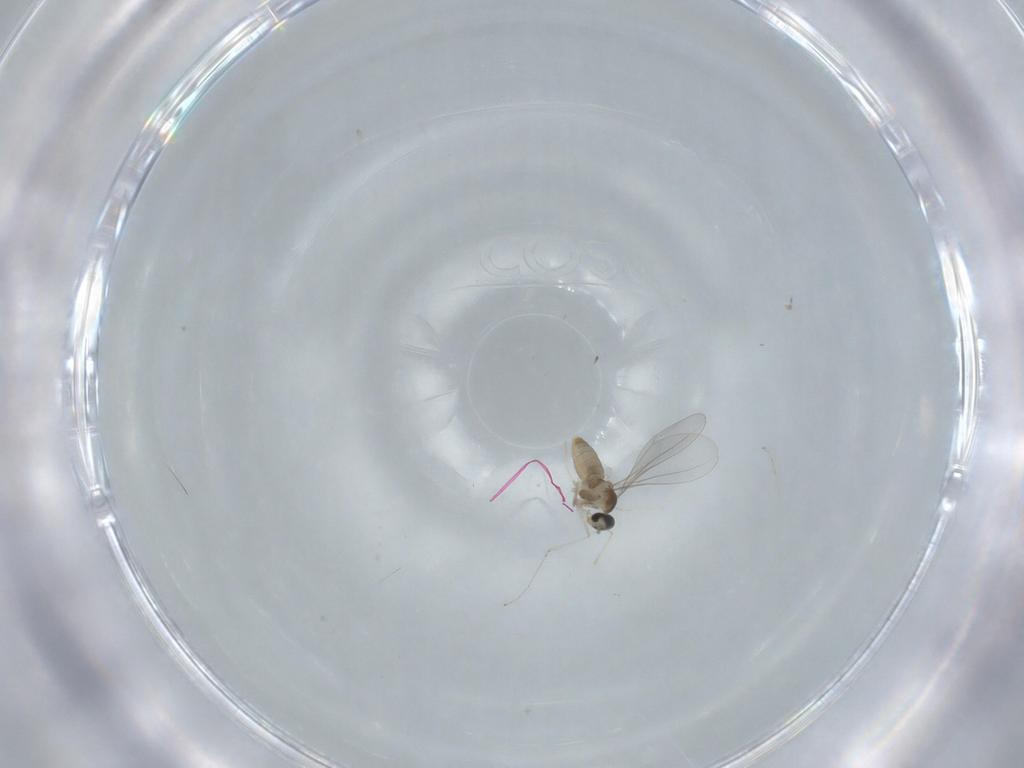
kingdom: Animalia
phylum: Arthropoda
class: Insecta
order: Diptera
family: Cecidomyiidae
